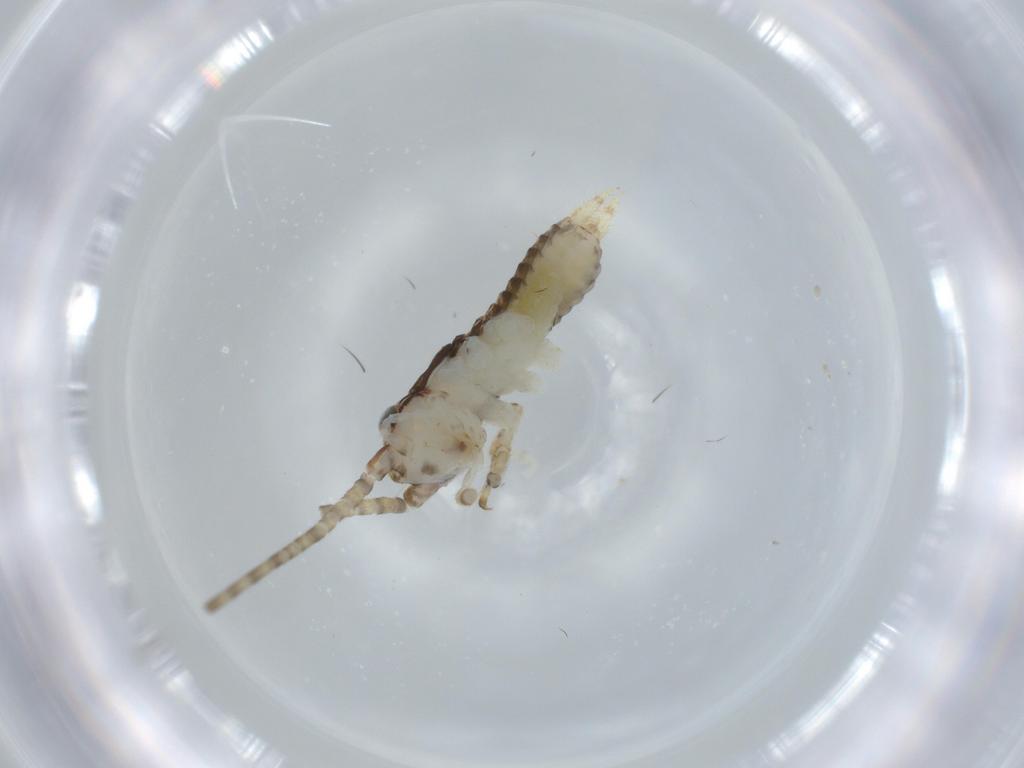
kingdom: Animalia
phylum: Arthropoda
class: Insecta
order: Orthoptera
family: Gryllidae
